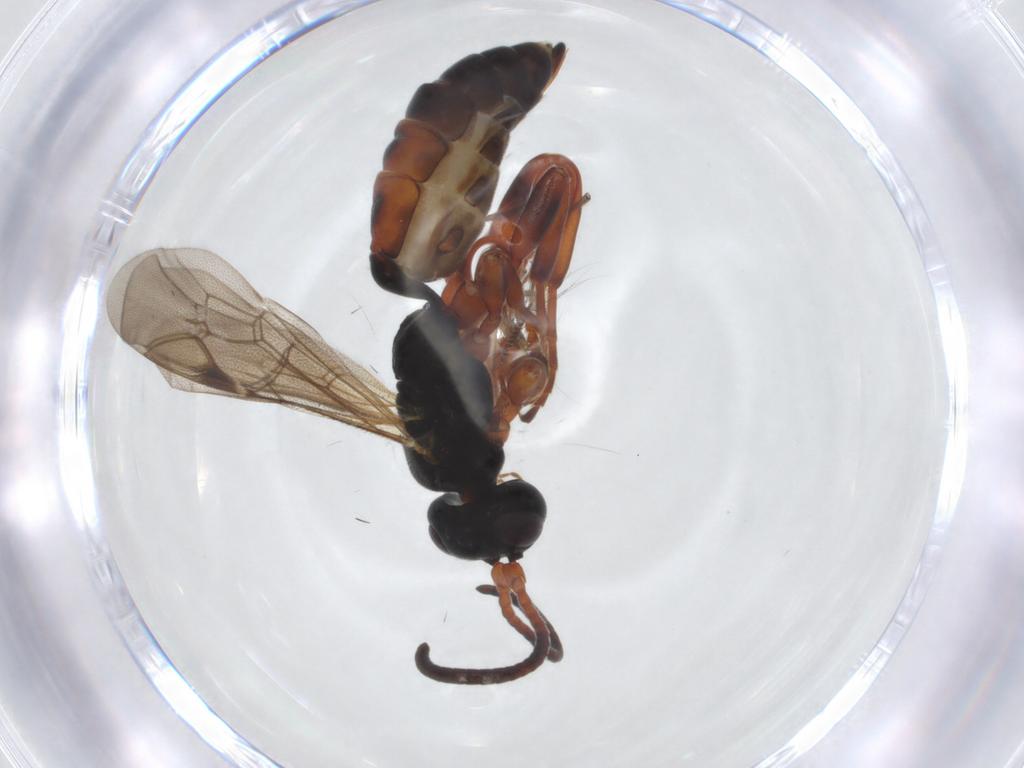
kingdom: Animalia
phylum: Arthropoda
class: Insecta
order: Hymenoptera
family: Ichneumonidae
